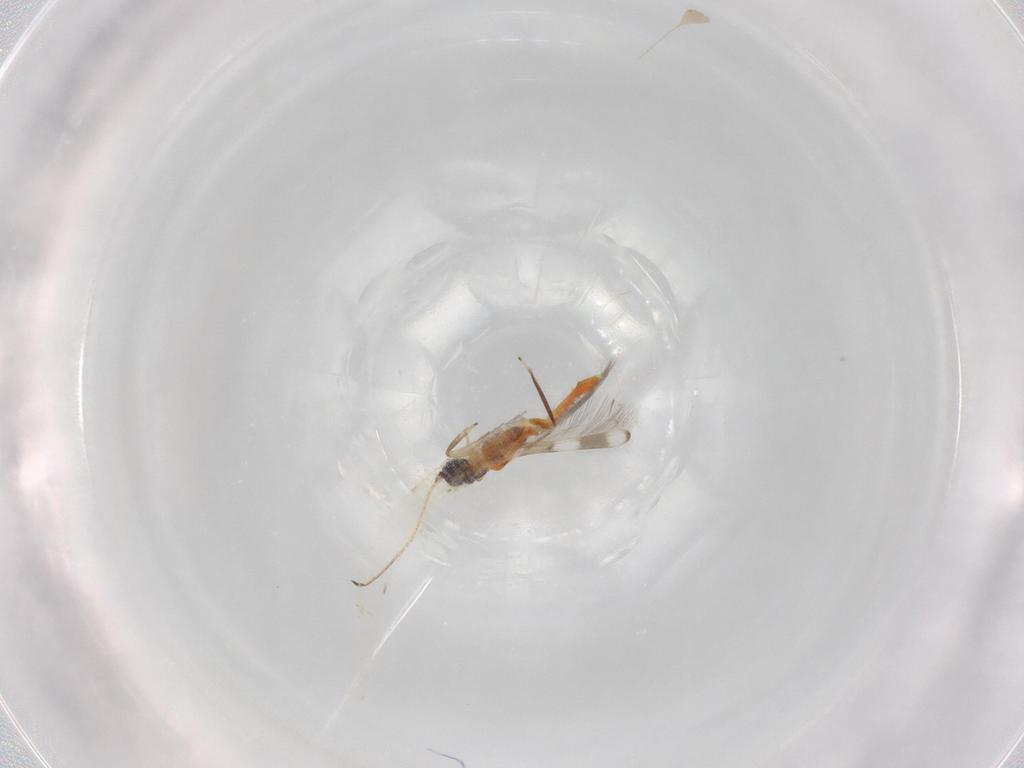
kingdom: Animalia
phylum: Arthropoda
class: Insecta
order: Thysanoptera
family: Aeolothripidae
